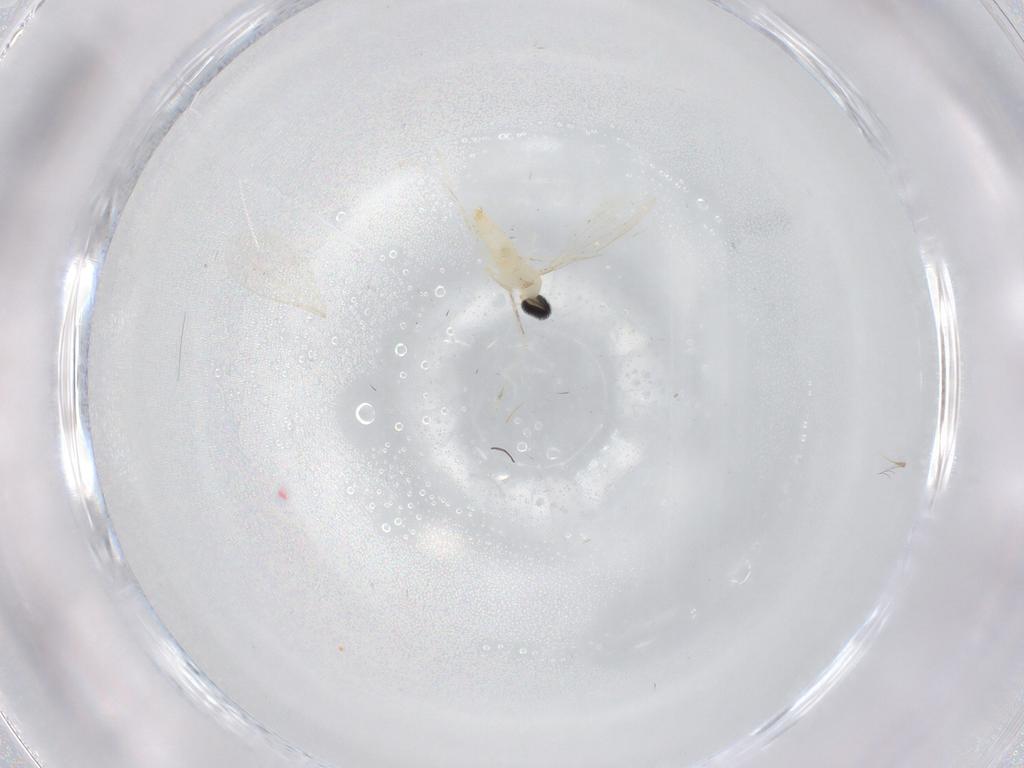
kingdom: Animalia
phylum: Arthropoda
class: Insecta
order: Diptera
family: Cecidomyiidae
